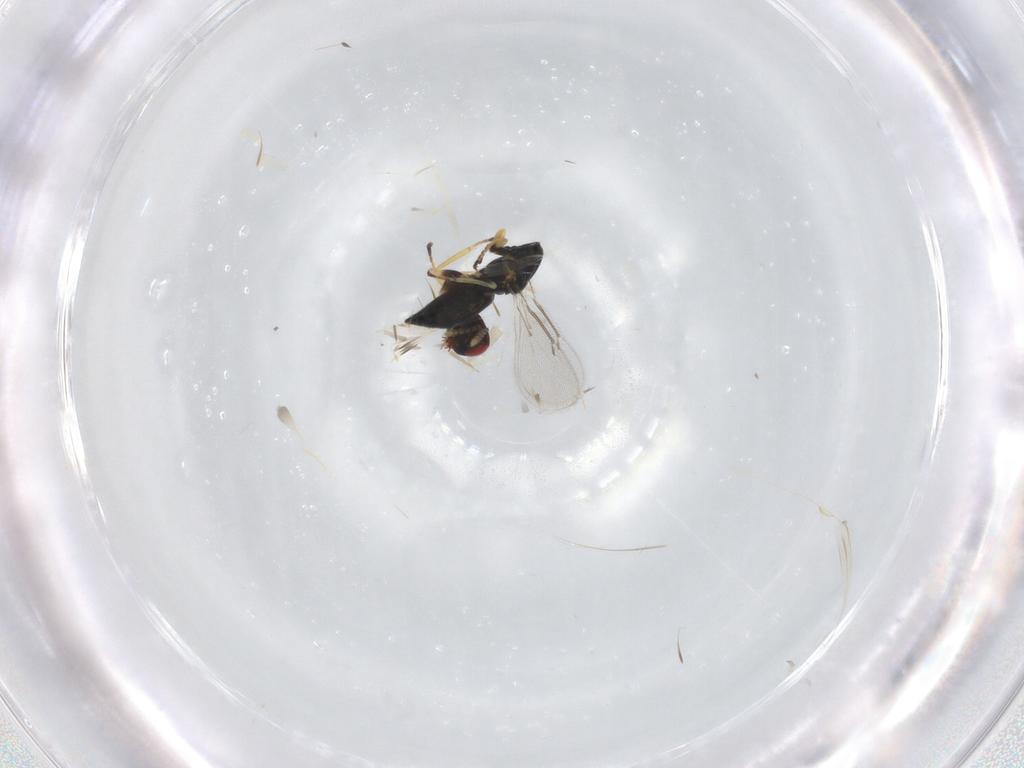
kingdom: Animalia
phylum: Arthropoda
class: Insecta
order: Hymenoptera
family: Eulophidae
